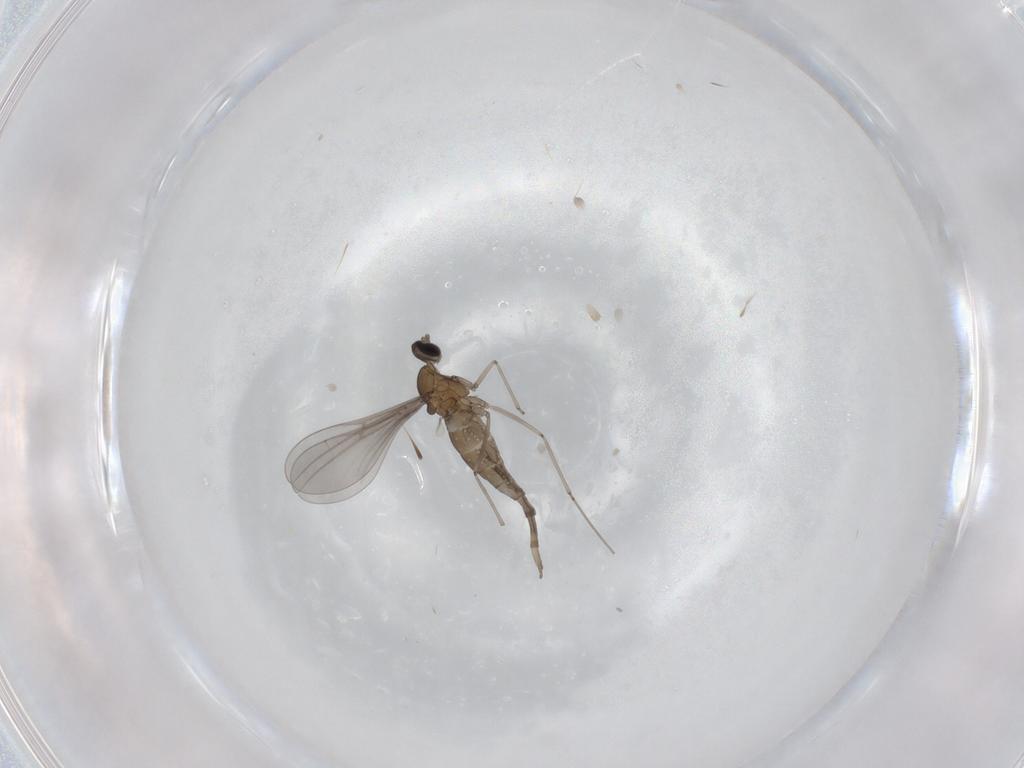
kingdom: Animalia
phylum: Arthropoda
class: Insecta
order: Diptera
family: Cecidomyiidae
